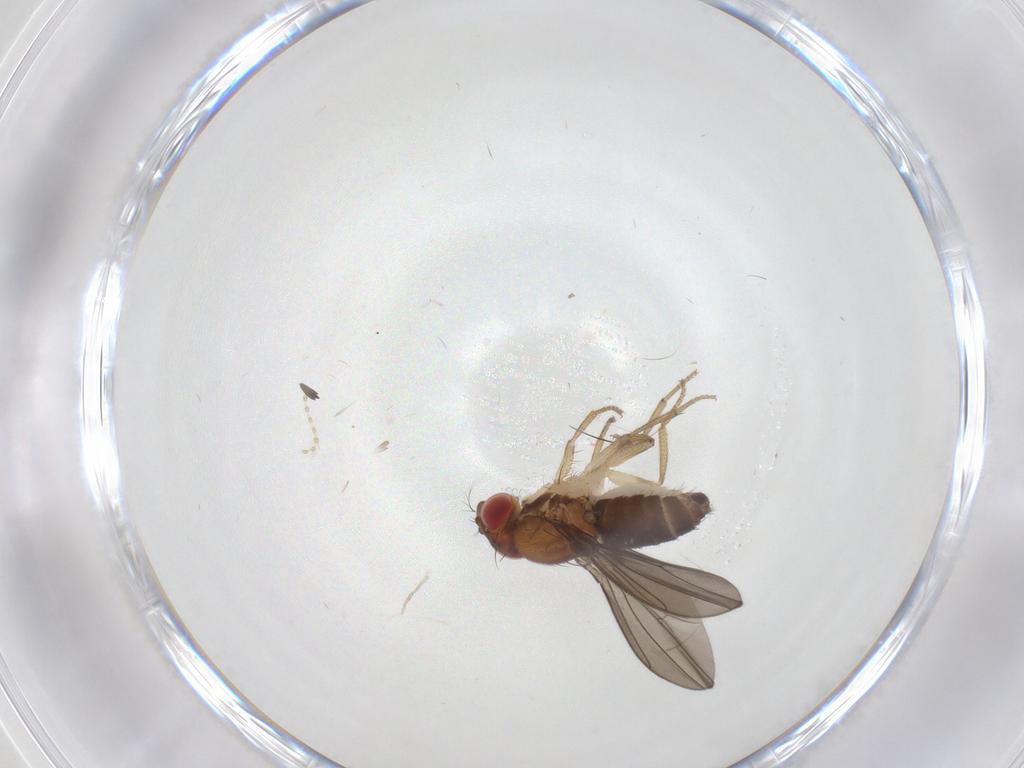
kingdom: Animalia
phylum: Arthropoda
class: Insecta
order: Diptera
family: Drosophilidae
